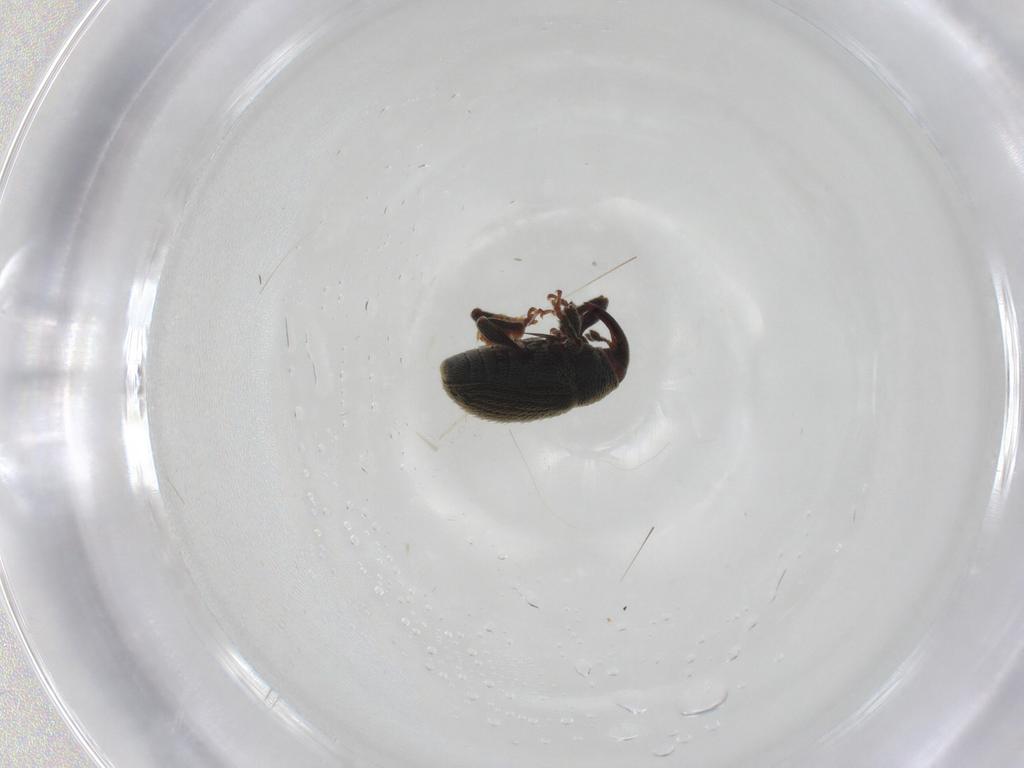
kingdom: Animalia
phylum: Arthropoda
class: Insecta
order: Coleoptera
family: Curculionidae
